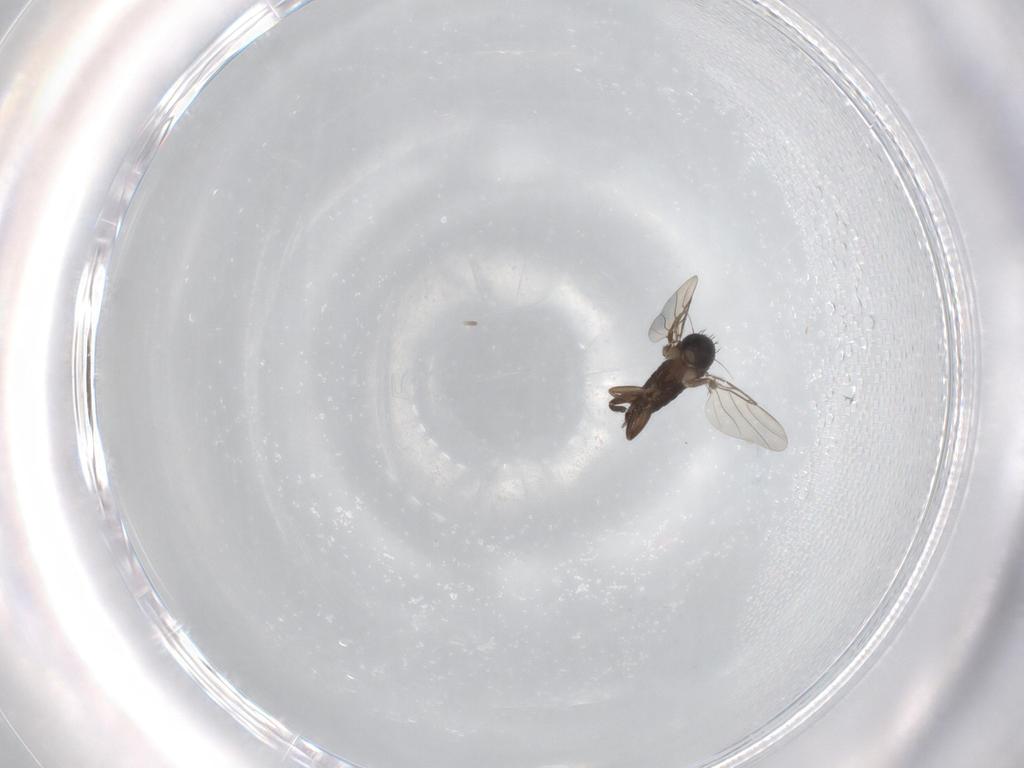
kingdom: Animalia
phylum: Arthropoda
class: Insecta
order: Diptera
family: Phoridae
